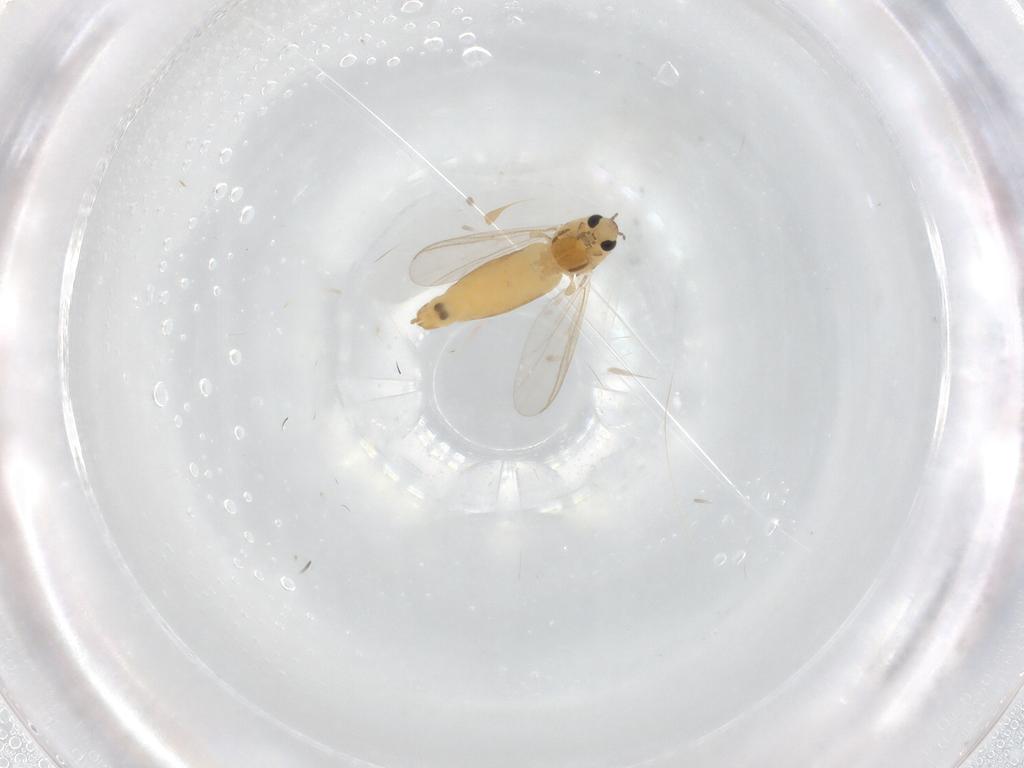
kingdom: Animalia
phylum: Arthropoda
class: Insecta
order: Diptera
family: Chironomidae
